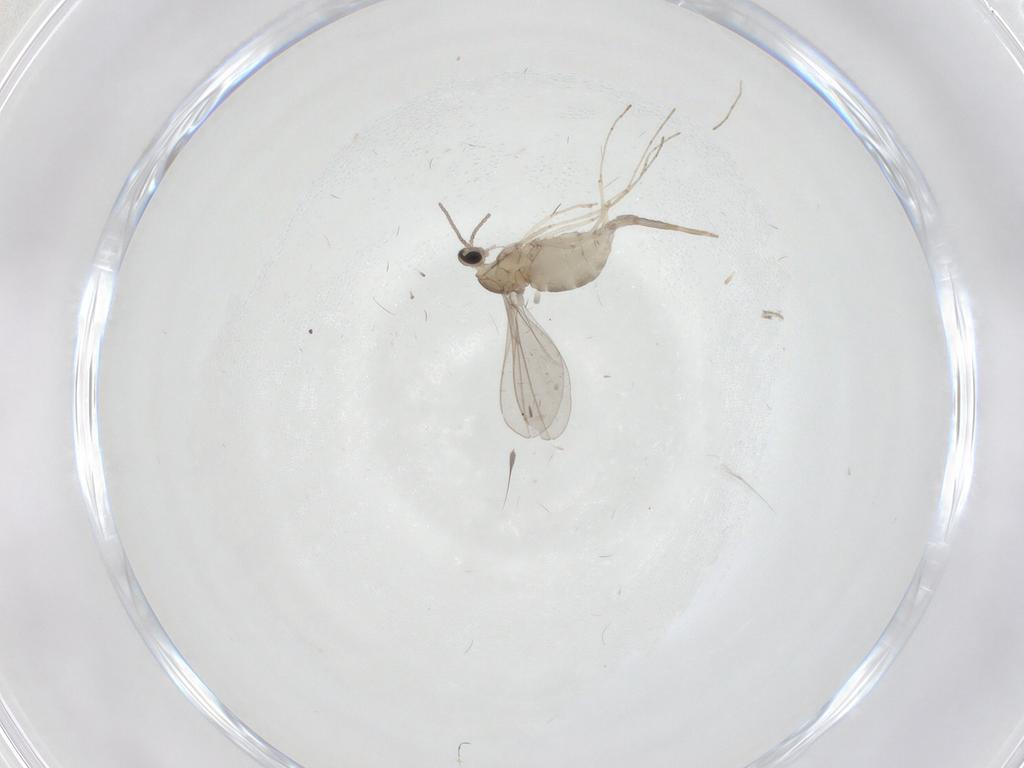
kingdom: Animalia
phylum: Arthropoda
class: Insecta
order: Diptera
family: Cecidomyiidae
